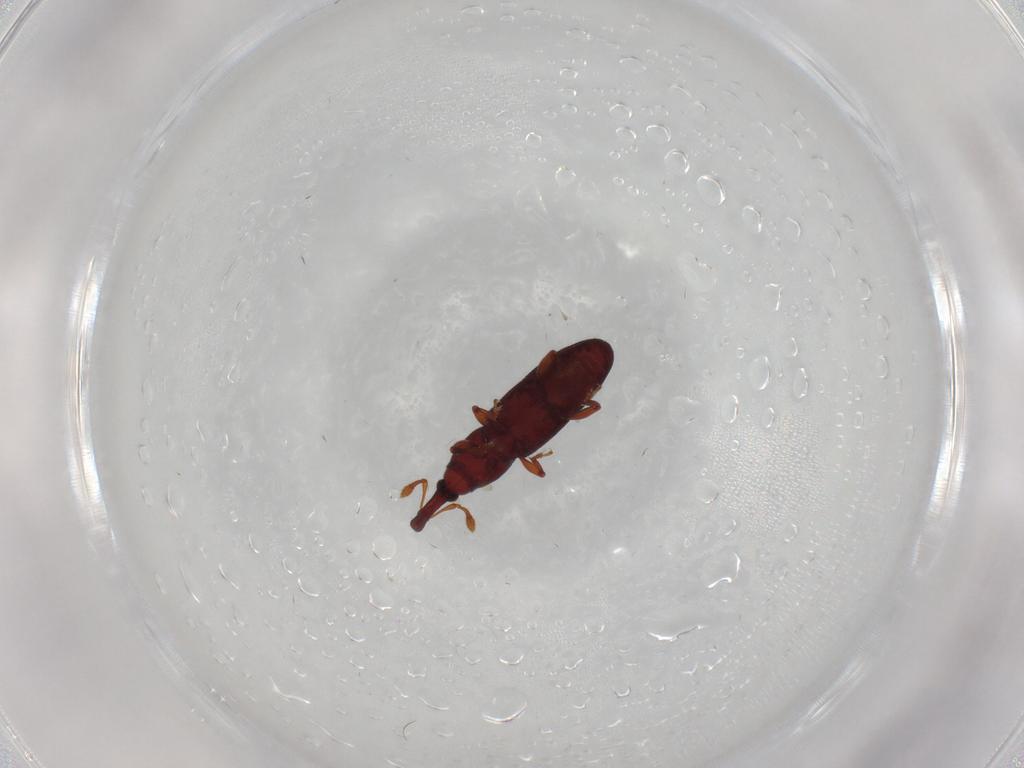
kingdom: Animalia
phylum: Arthropoda
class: Insecta
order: Coleoptera
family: Curculionidae
